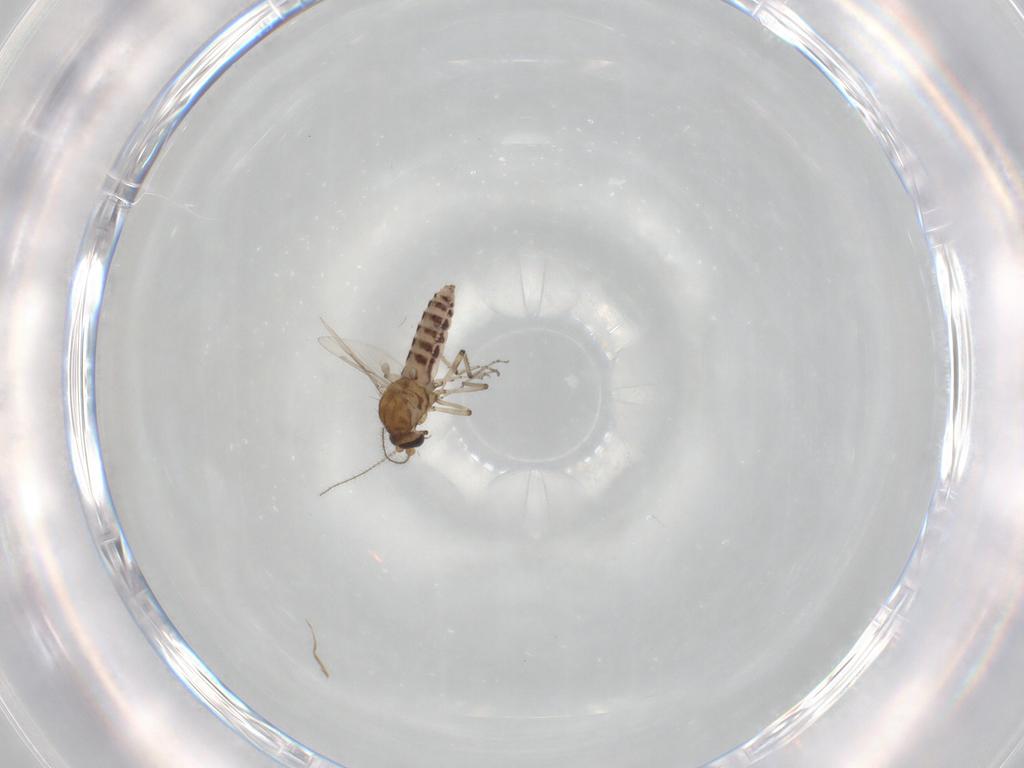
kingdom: Animalia
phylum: Arthropoda
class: Insecta
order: Diptera
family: Ceratopogonidae
